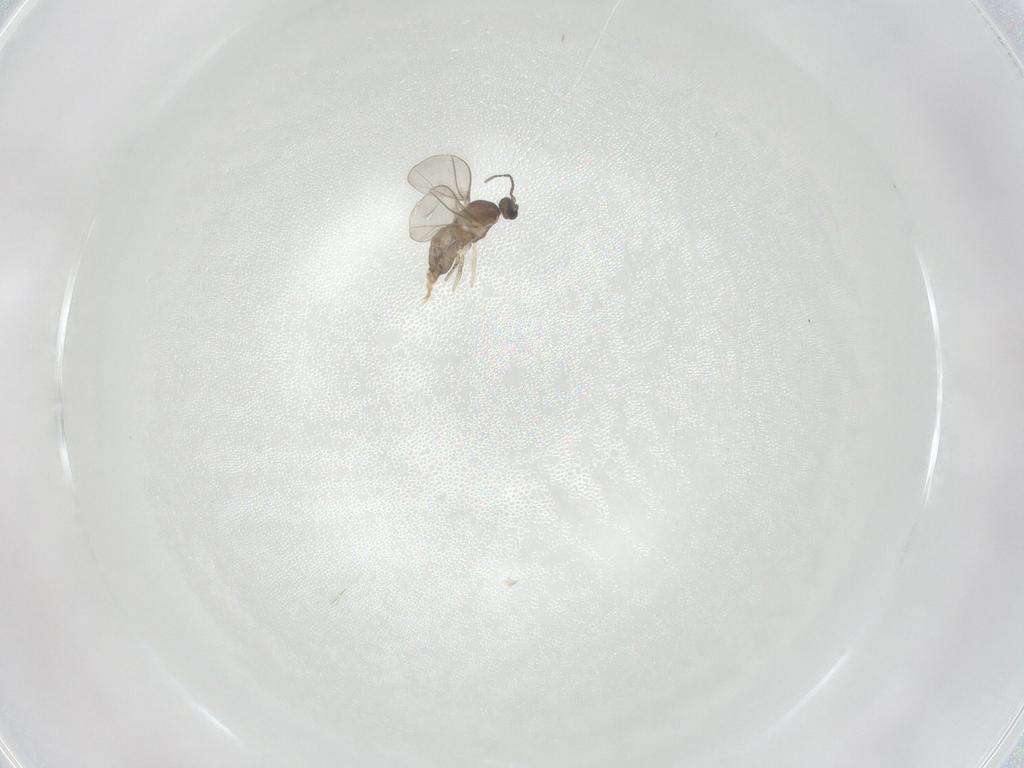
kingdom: Animalia
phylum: Arthropoda
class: Insecta
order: Diptera
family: Cecidomyiidae
